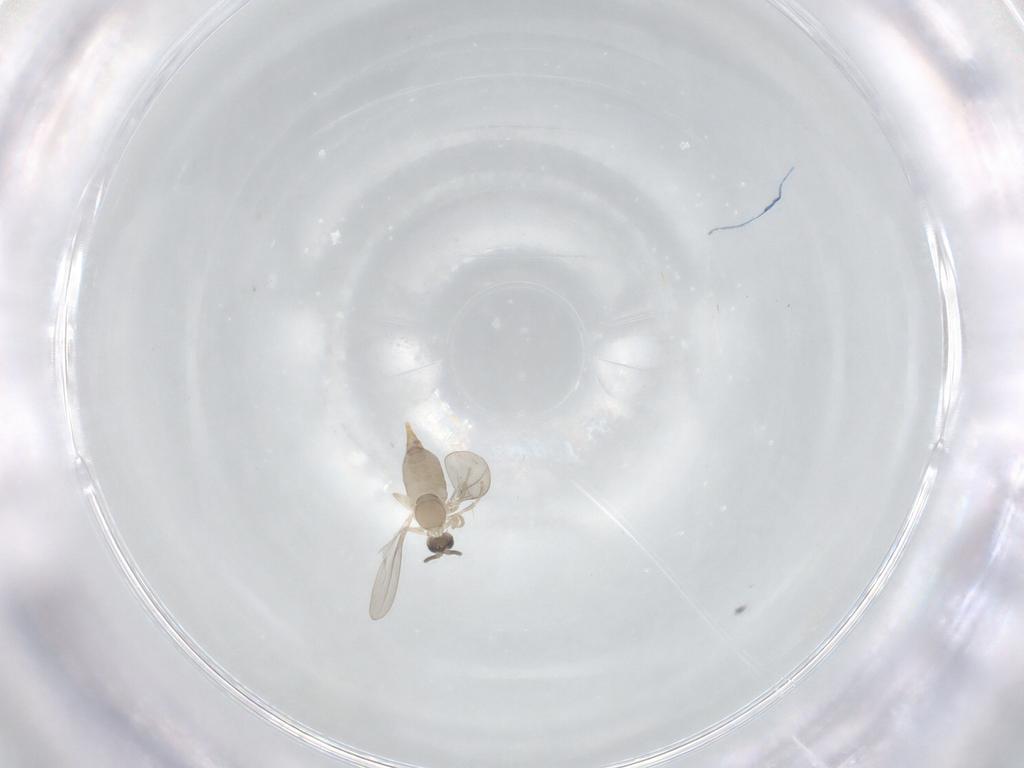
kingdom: Animalia
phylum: Arthropoda
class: Insecta
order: Diptera
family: Cecidomyiidae
